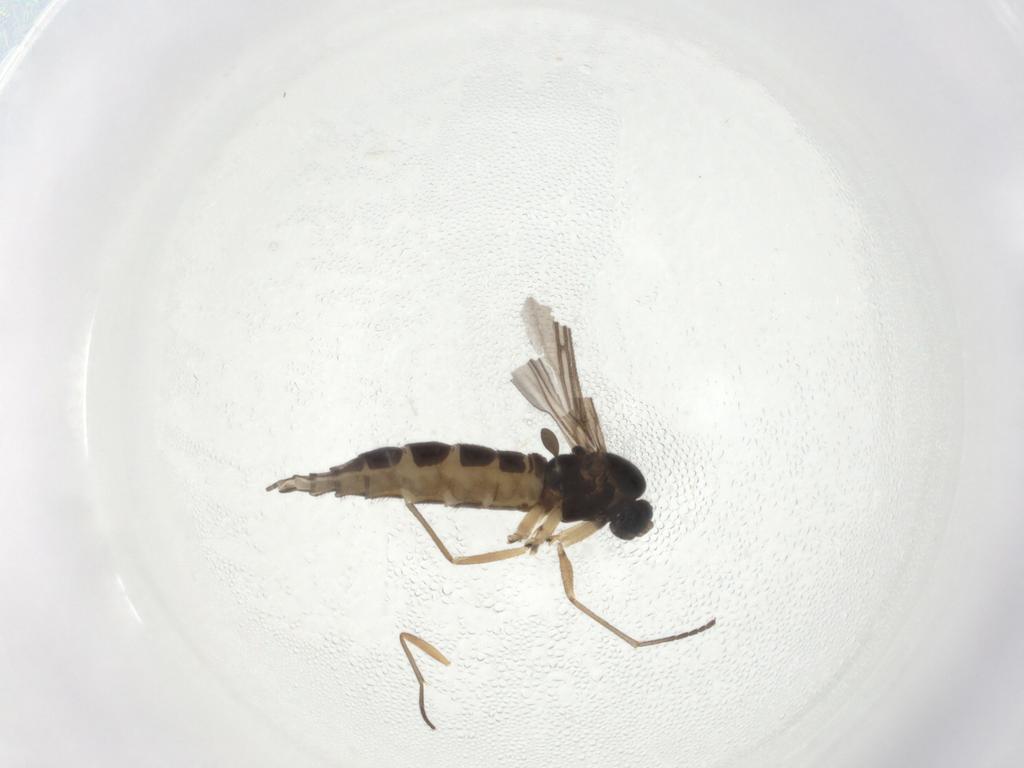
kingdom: Animalia
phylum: Arthropoda
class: Insecta
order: Diptera
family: Sciaridae
